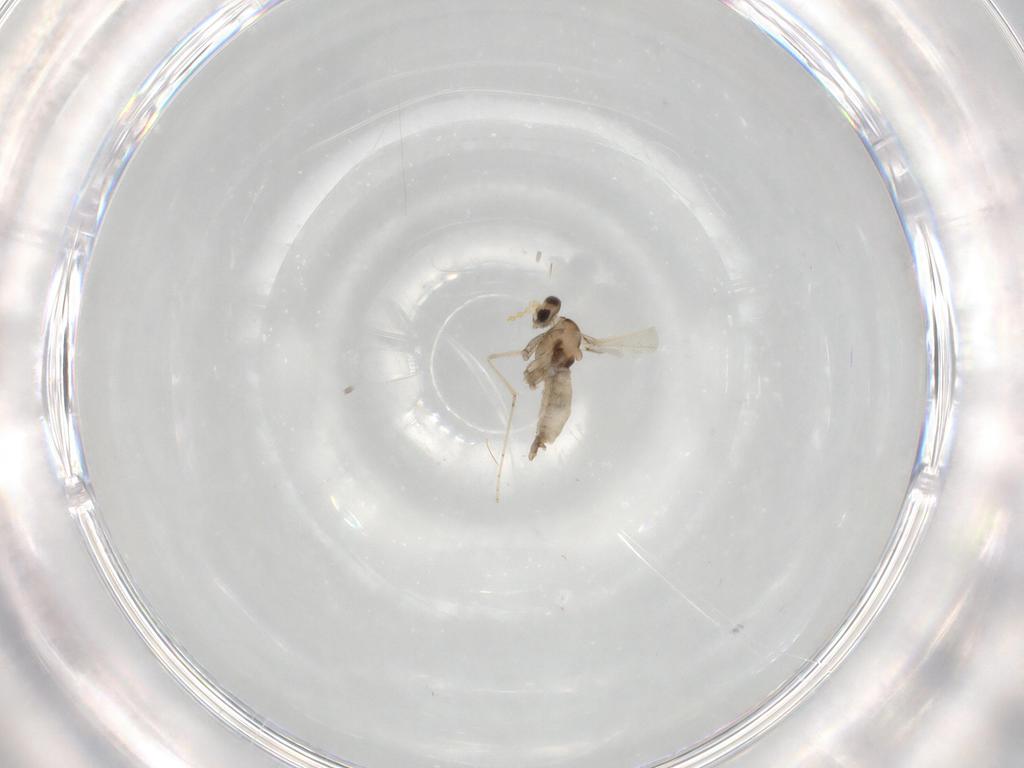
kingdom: Animalia
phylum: Arthropoda
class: Insecta
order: Diptera
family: Cecidomyiidae
